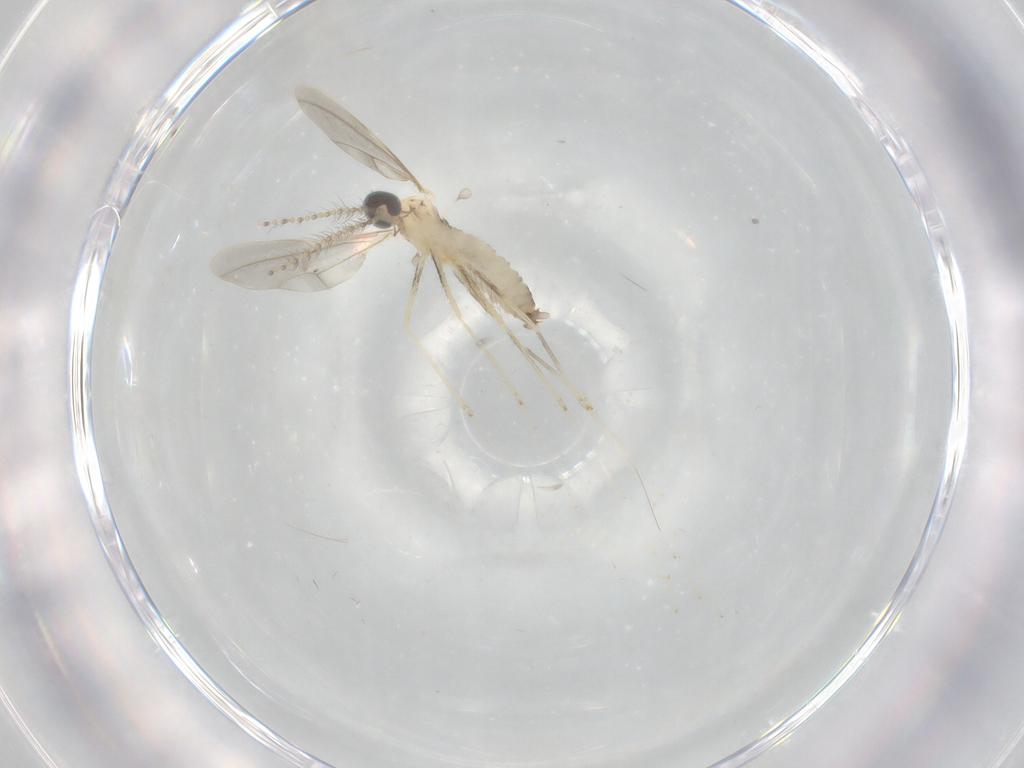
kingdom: Animalia
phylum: Arthropoda
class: Insecta
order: Diptera
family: Cecidomyiidae
